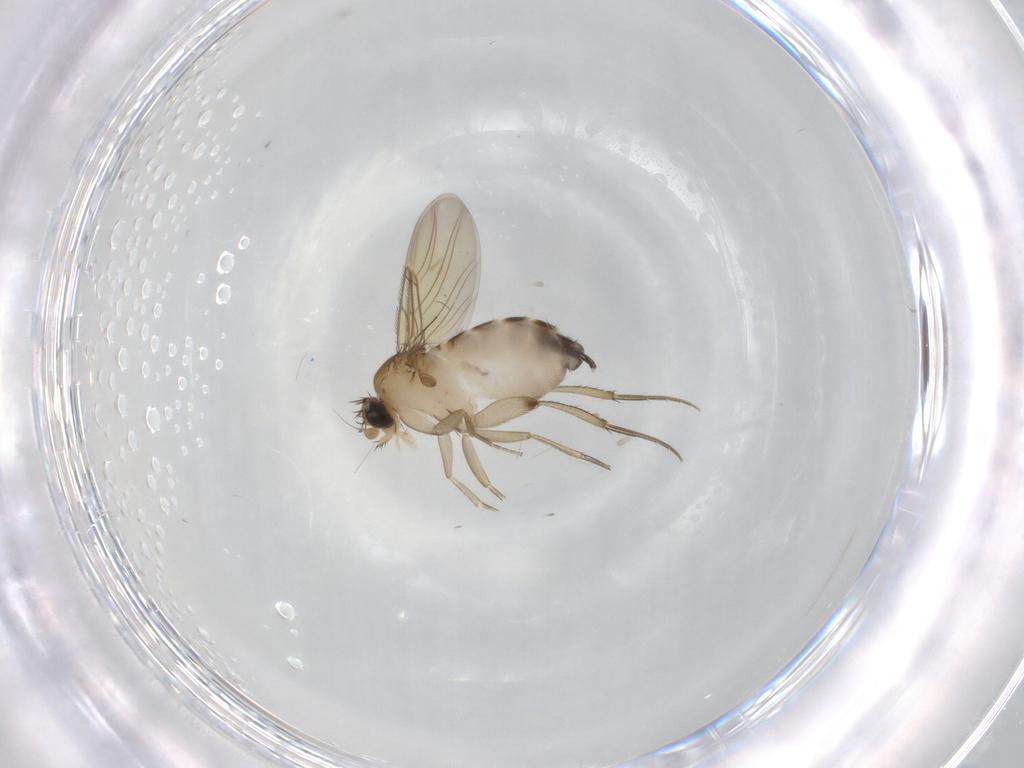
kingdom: Animalia
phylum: Arthropoda
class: Insecta
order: Diptera
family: Phoridae
